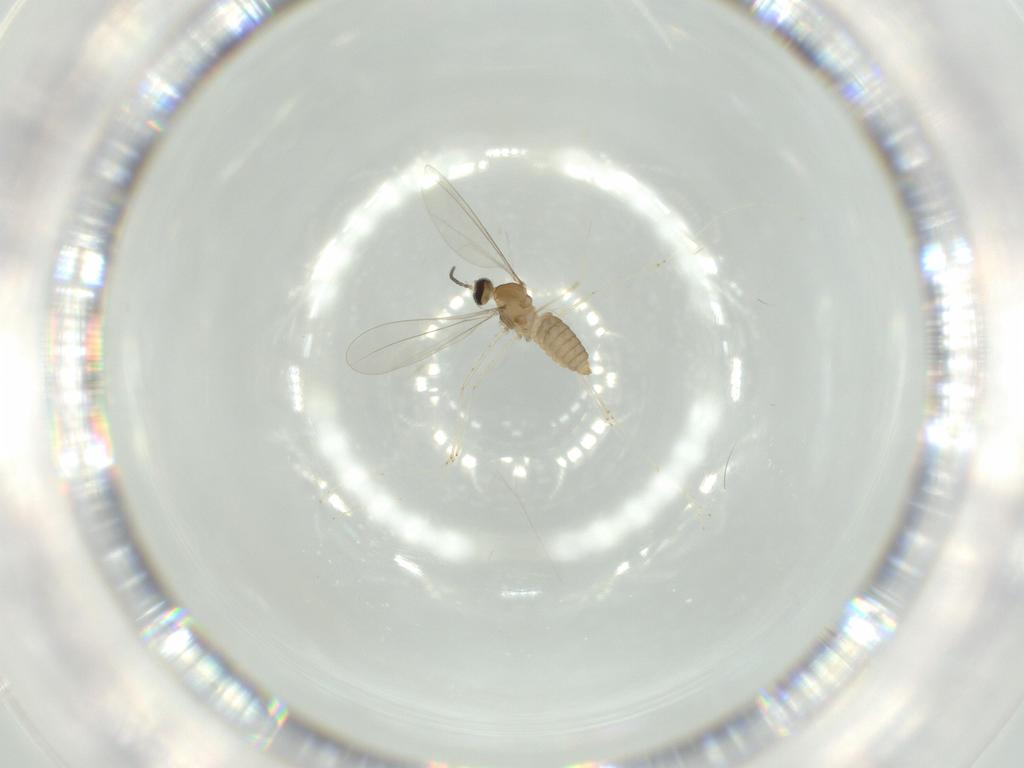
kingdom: Animalia
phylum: Arthropoda
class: Insecta
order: Diptera
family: Cecidomyiidae
